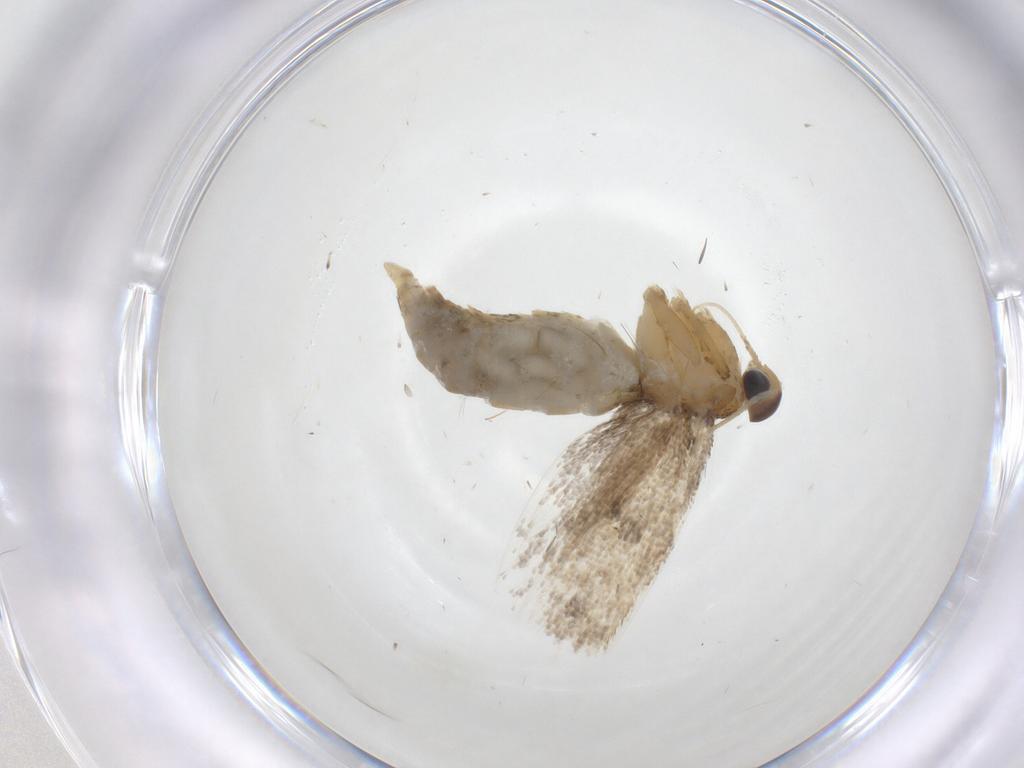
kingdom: Animalia
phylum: Arthropoda
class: Insecta
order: Lepidoptera
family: Oecophoridae
